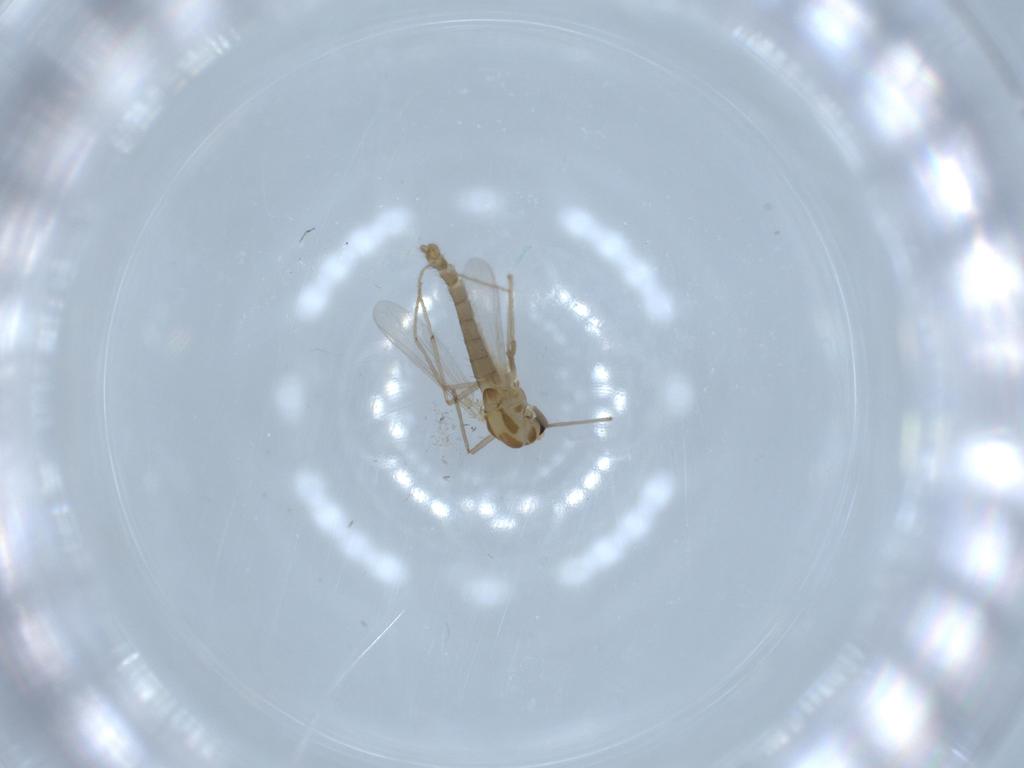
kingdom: Animalia
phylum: Arthropoda
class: Insecta
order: Diptera
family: Chironomidae
